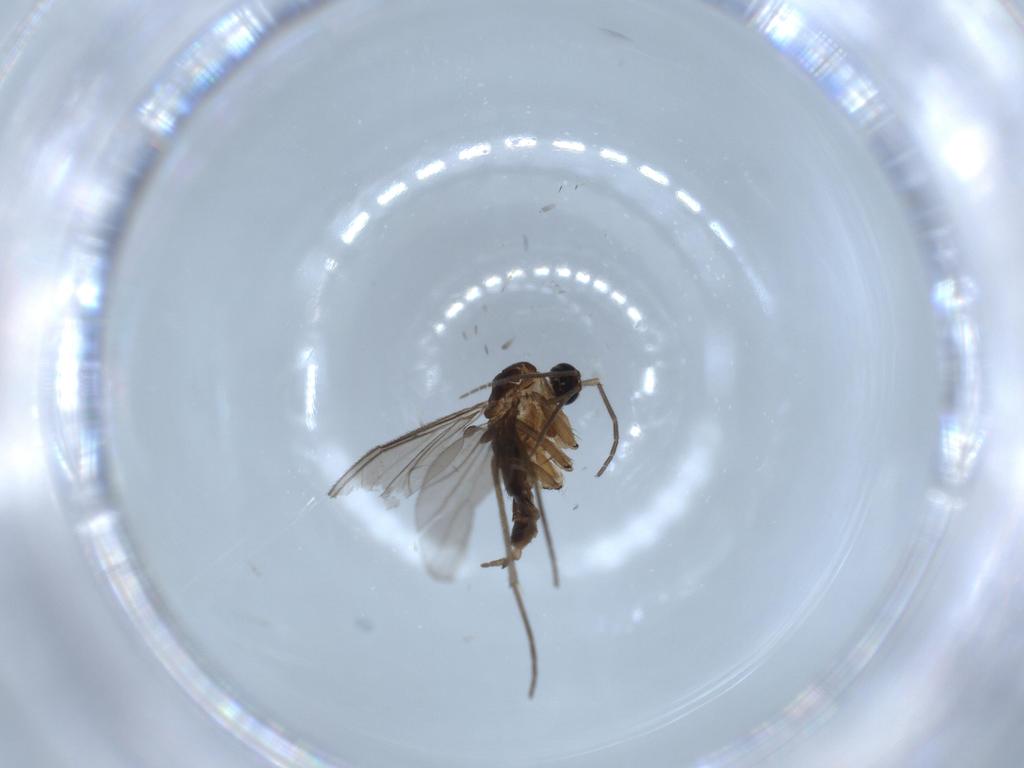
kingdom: Animalia
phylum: Arthropoda
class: Insecta
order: Diptera
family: Sciaridae
